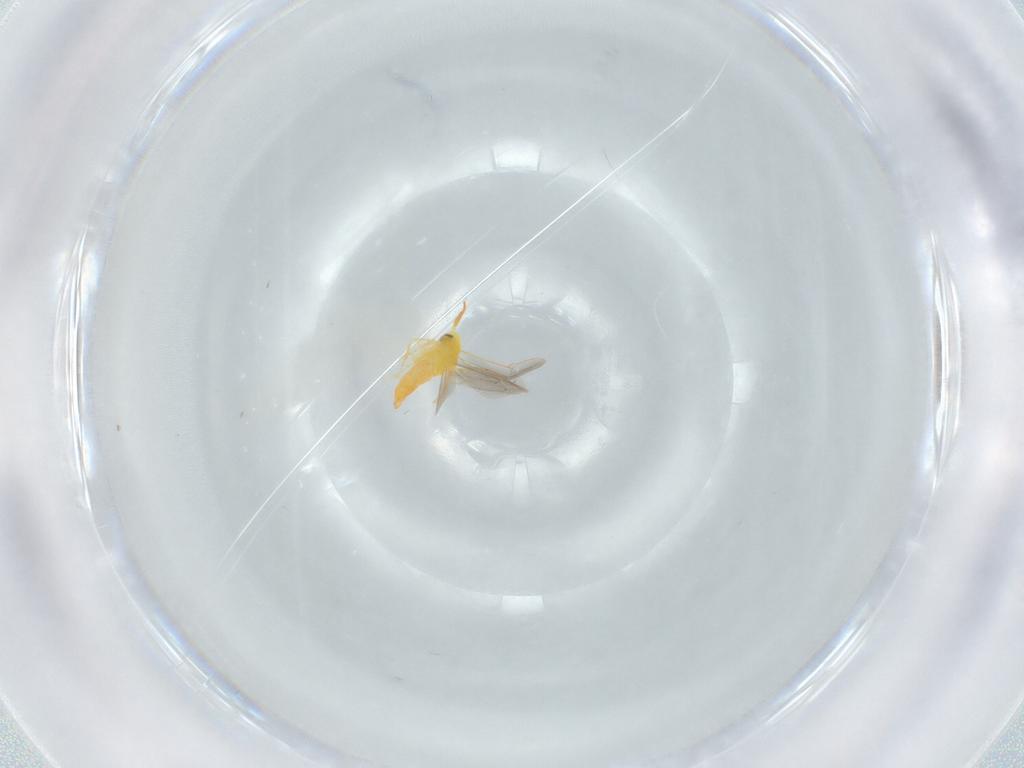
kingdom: Animalia
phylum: Arthropoda
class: Insecta
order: Hemiptera
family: Aleyrodidae
